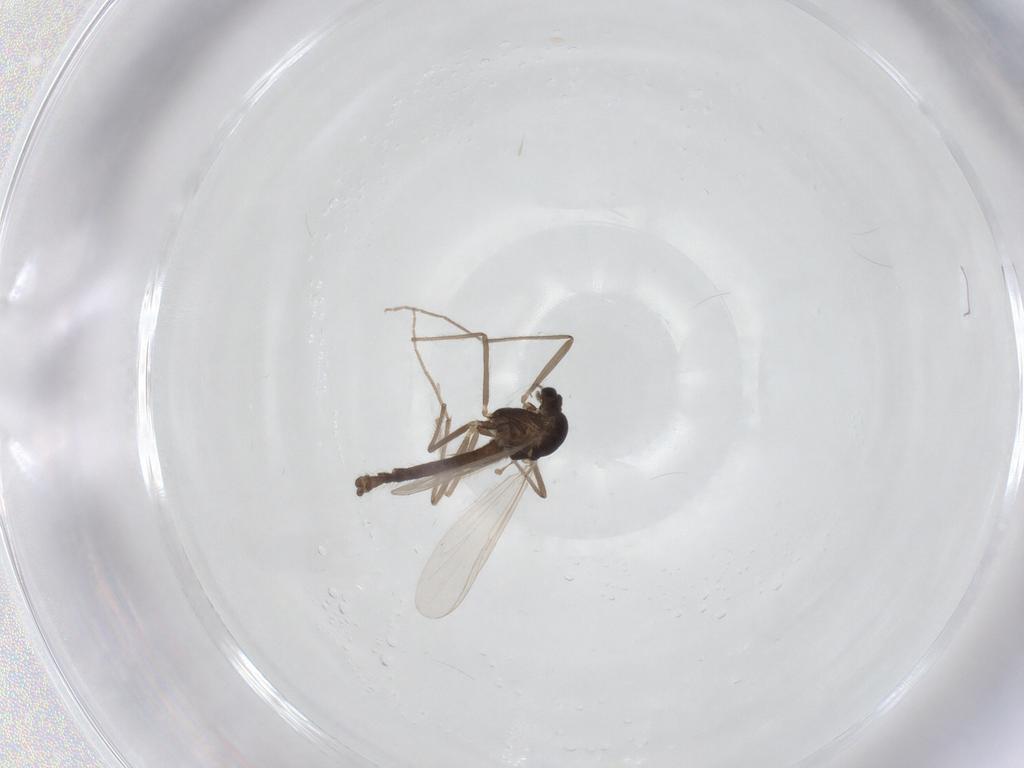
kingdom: Animalia
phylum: Arthropoda
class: Insecta
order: Diptera
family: Chironomidae
